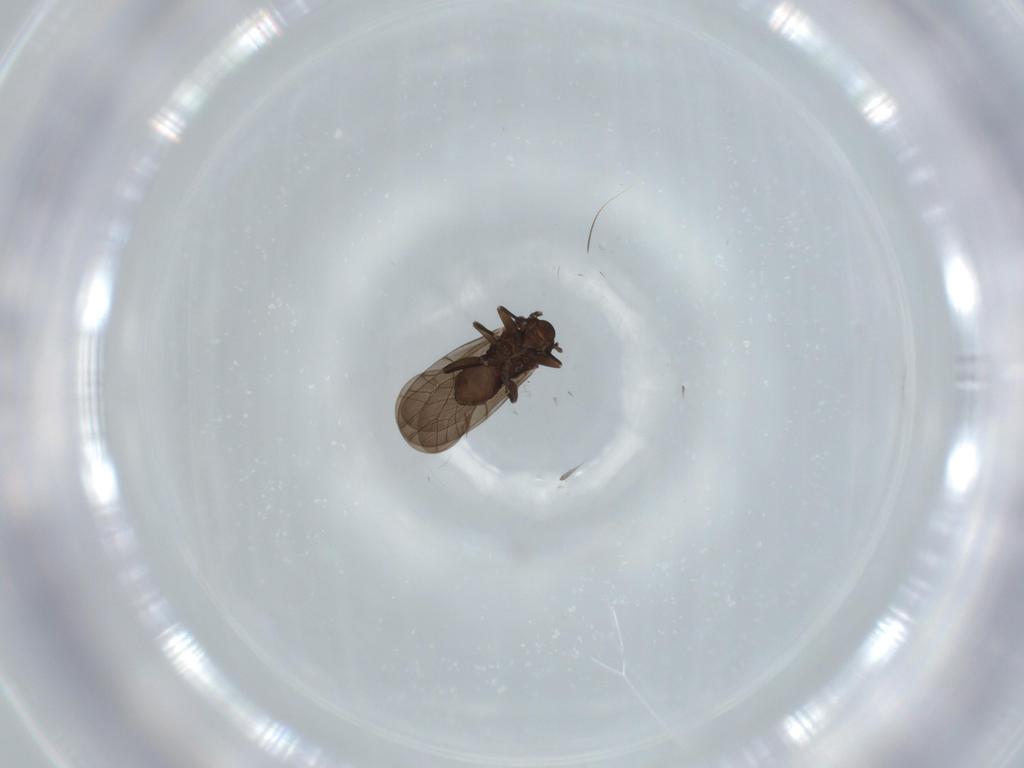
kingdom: Animalia
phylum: Arthropoda
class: Insecta
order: Psocodea
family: Lepidopsocidae
